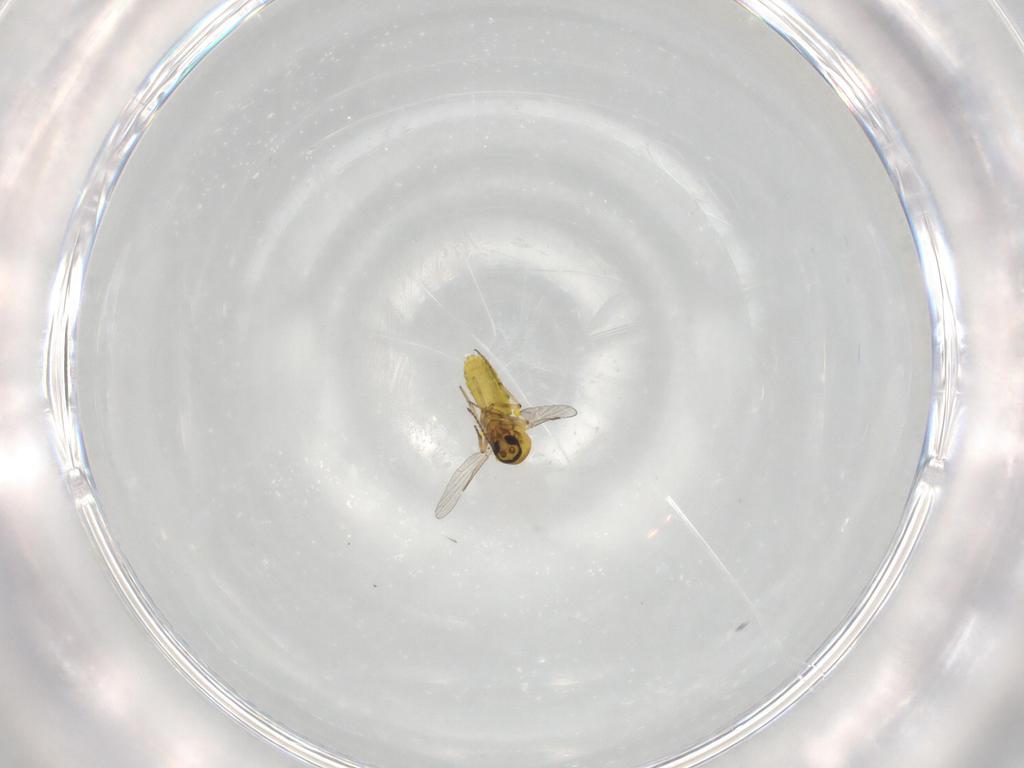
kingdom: Animalia
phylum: Arthropoda
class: Insecta
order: Diptera
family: Ceratopogonidae
